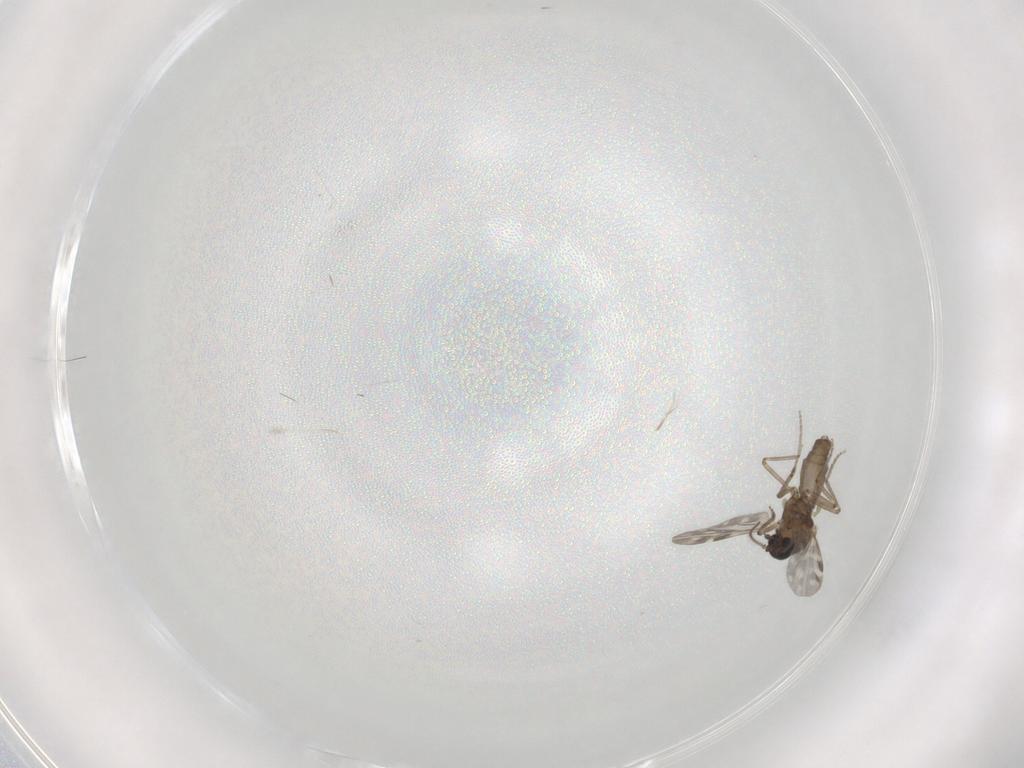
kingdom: Animalia
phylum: Arthropoda
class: Insecta
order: Diptera
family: Ceratopogonidae
